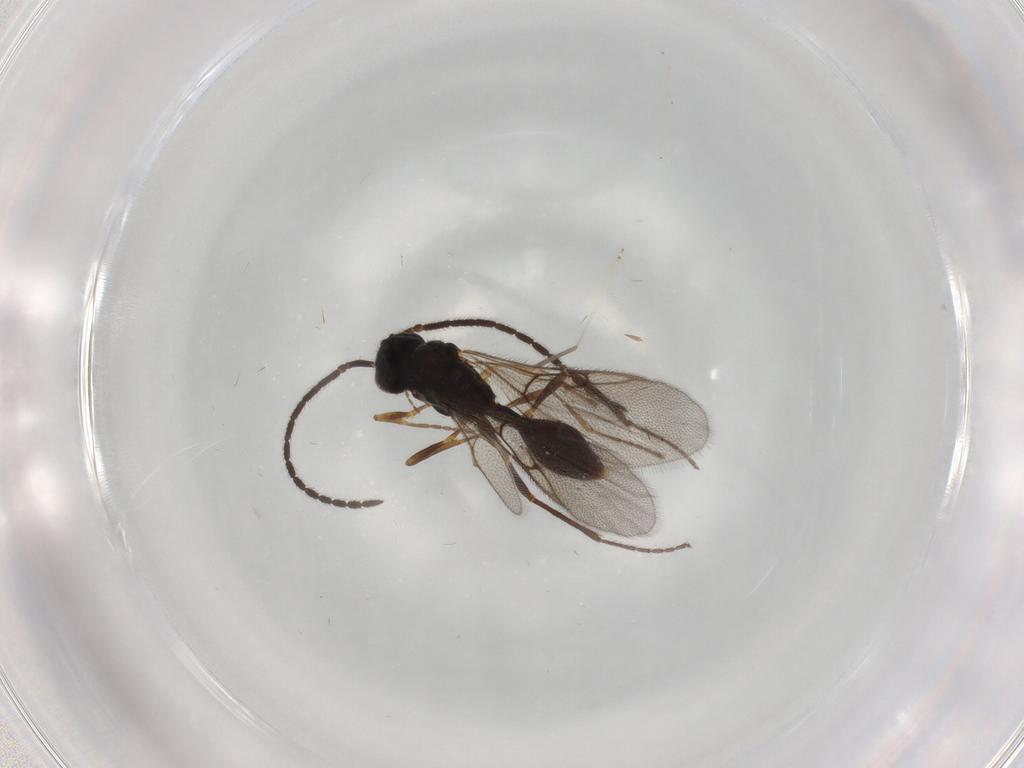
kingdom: Animalia
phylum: Arthropoda
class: Insecta
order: Hymenoptera
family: Diapriidae
